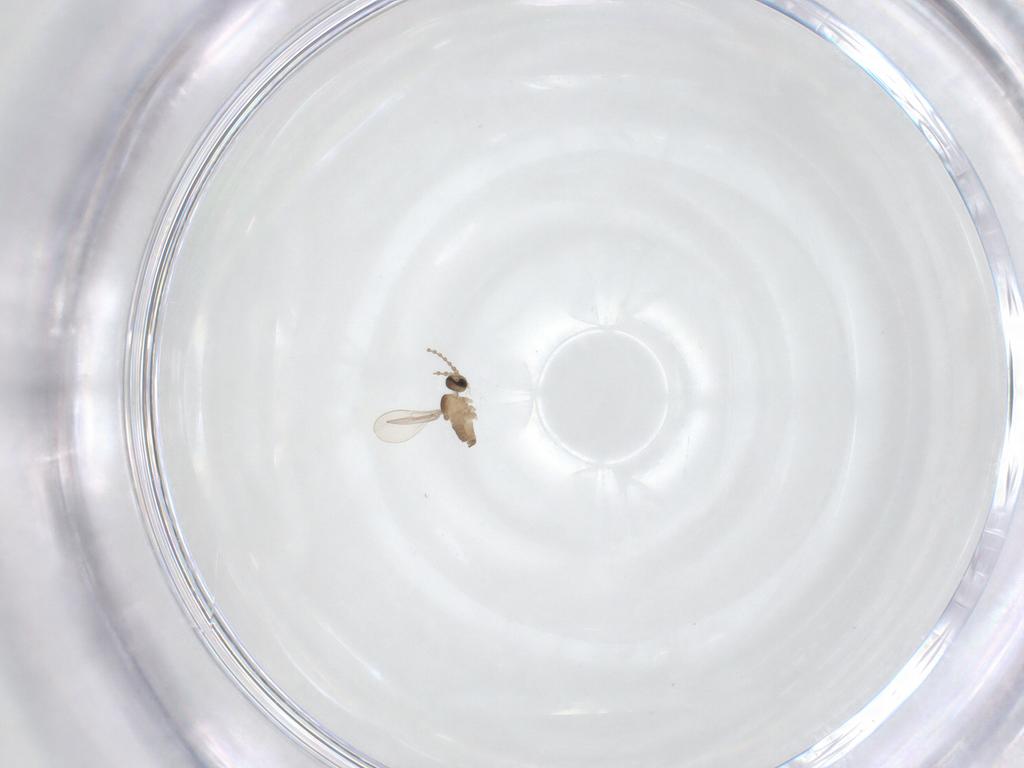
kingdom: Animalia
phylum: Arthropoda
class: Insecta
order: Diptera
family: Cecidomyiidae
